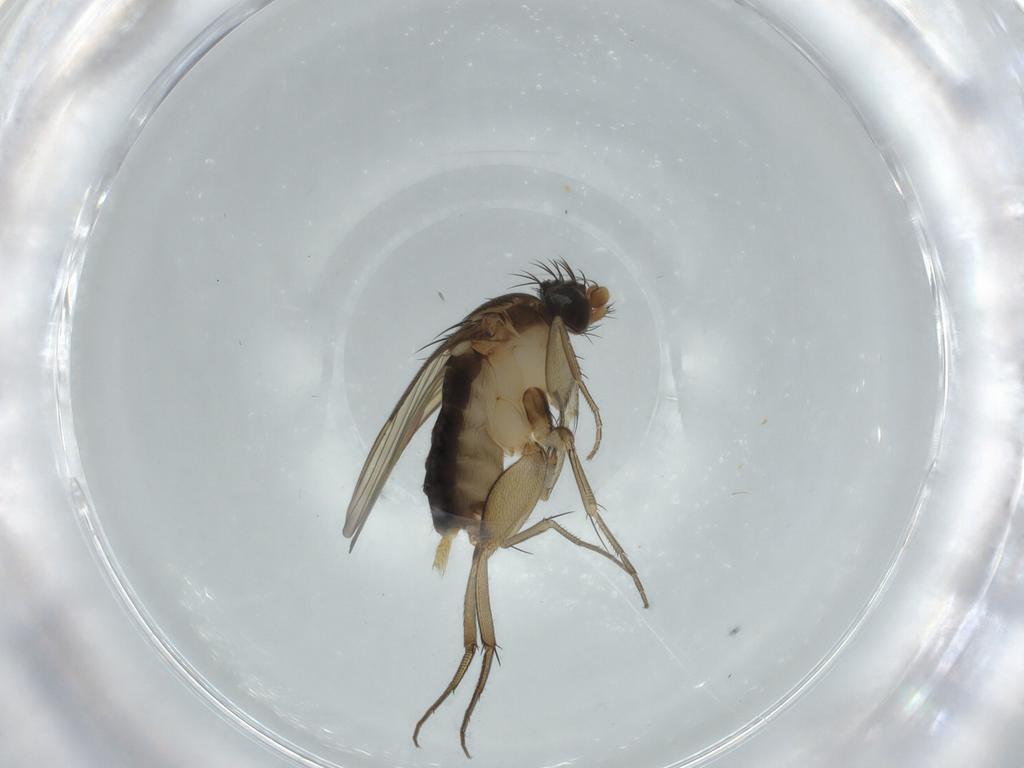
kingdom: Animalia
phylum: Arthropoda
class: Insecta
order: Diptera
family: Cecidomyiidae
